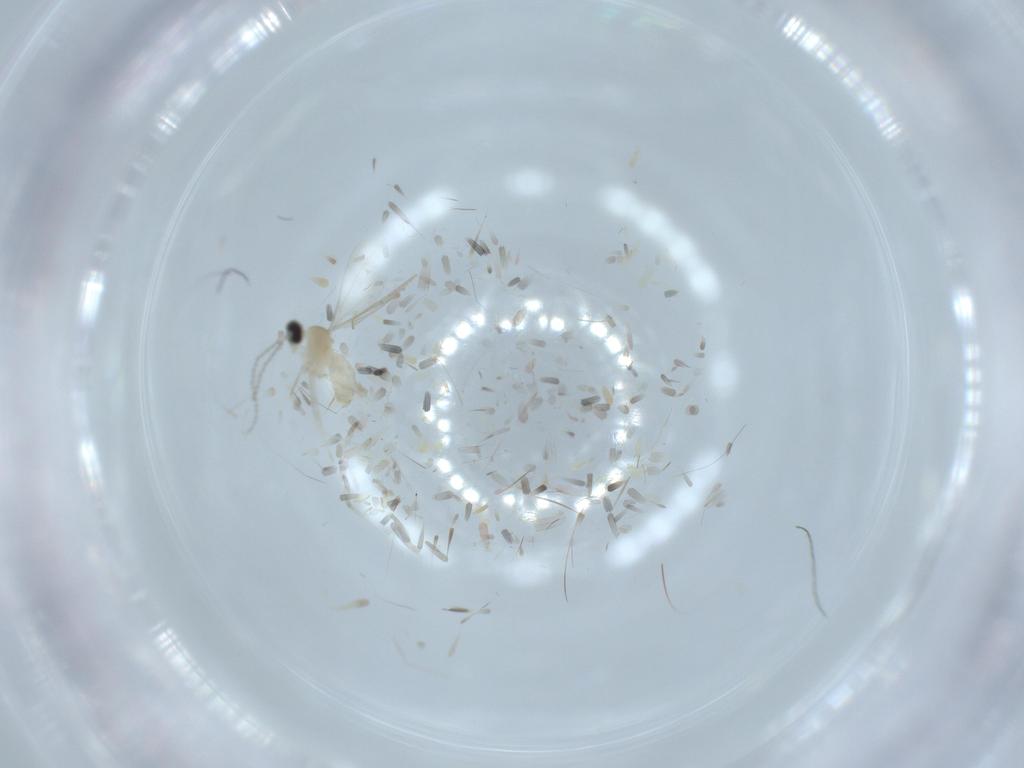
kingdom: Animalia
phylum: Arthropoda
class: Insecta
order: Diptera
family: Cecidomyiidae
